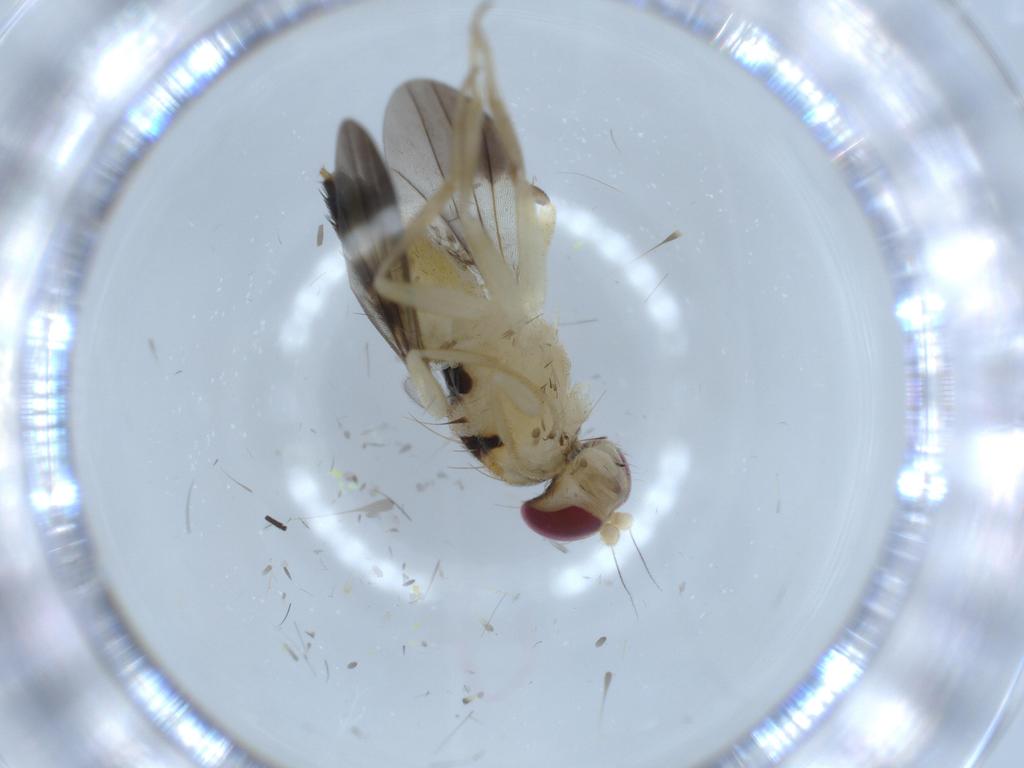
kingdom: Animalia
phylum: Arthropoda
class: Insecta
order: Diptera
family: Clusiidae
